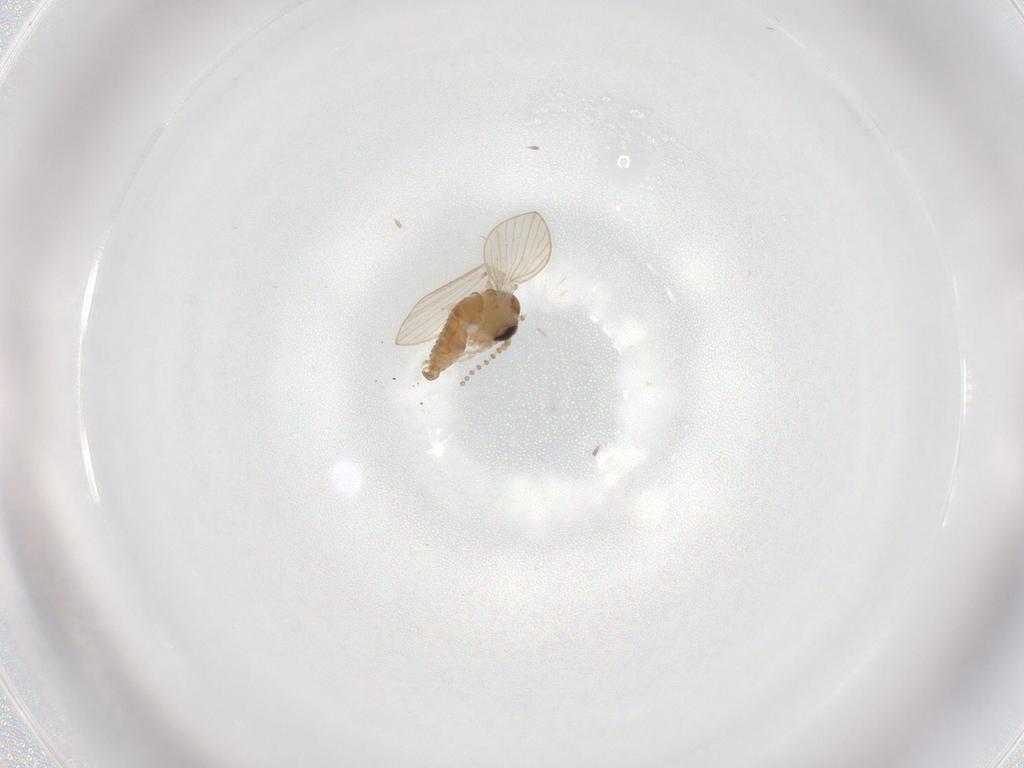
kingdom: Animalia
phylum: Arthropoda
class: Insecta
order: Diptera
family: Psychodidae
